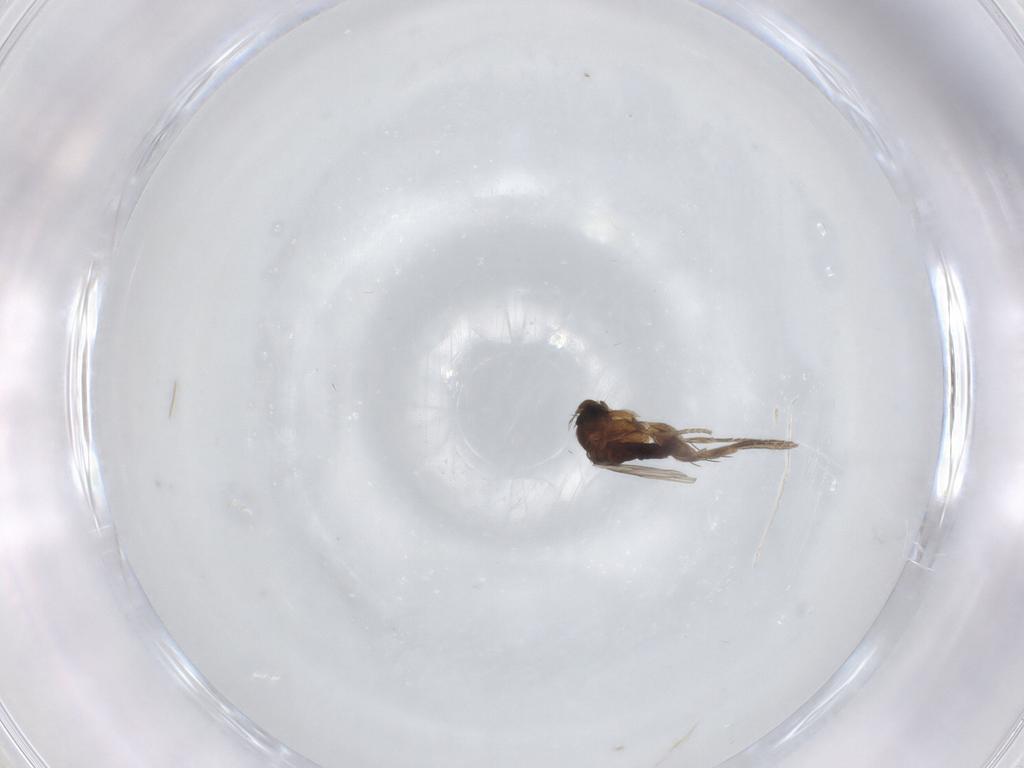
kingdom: Animalia
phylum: Arthropoda
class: Insecta
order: Diptera
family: Phoridae
